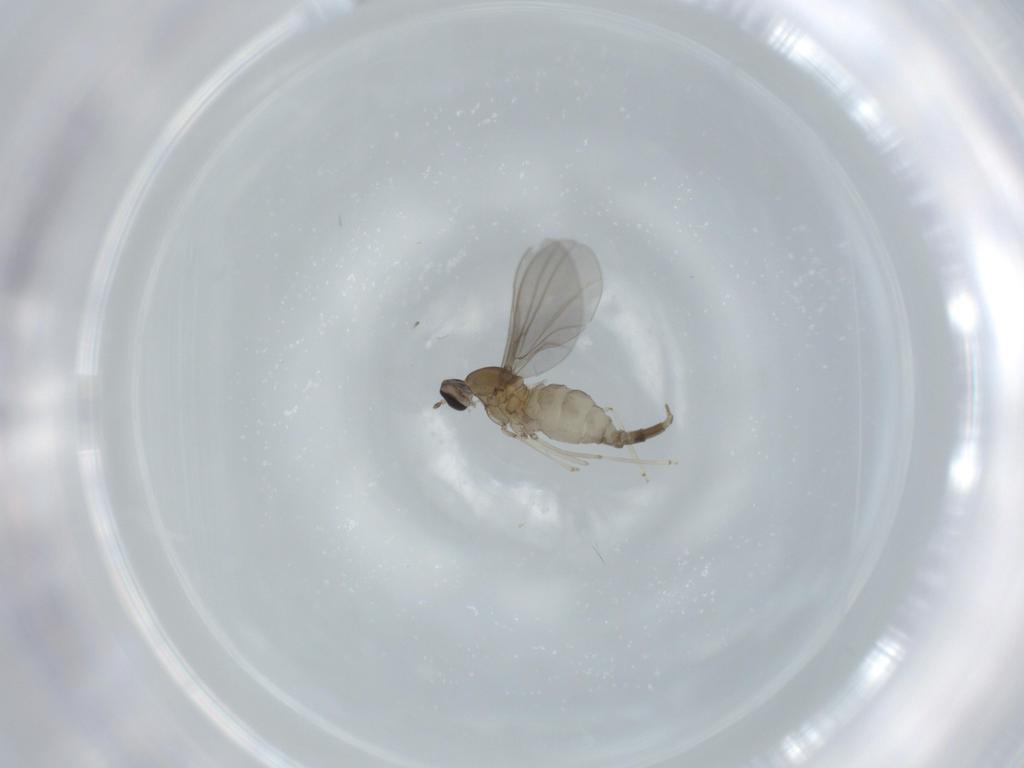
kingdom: Animalia
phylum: Arthropoda
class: Insecta
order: Diptera
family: Cecidomyiidae
